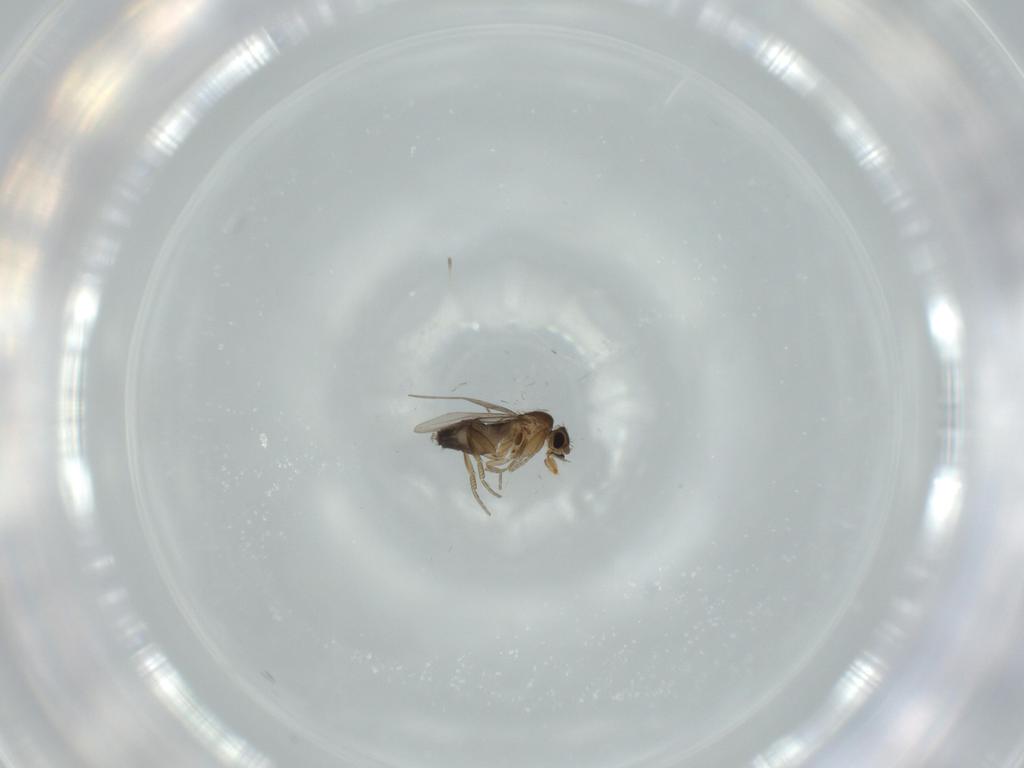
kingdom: Animalia
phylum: Arthropoda
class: Insecta
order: Diptera
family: Phoridae
